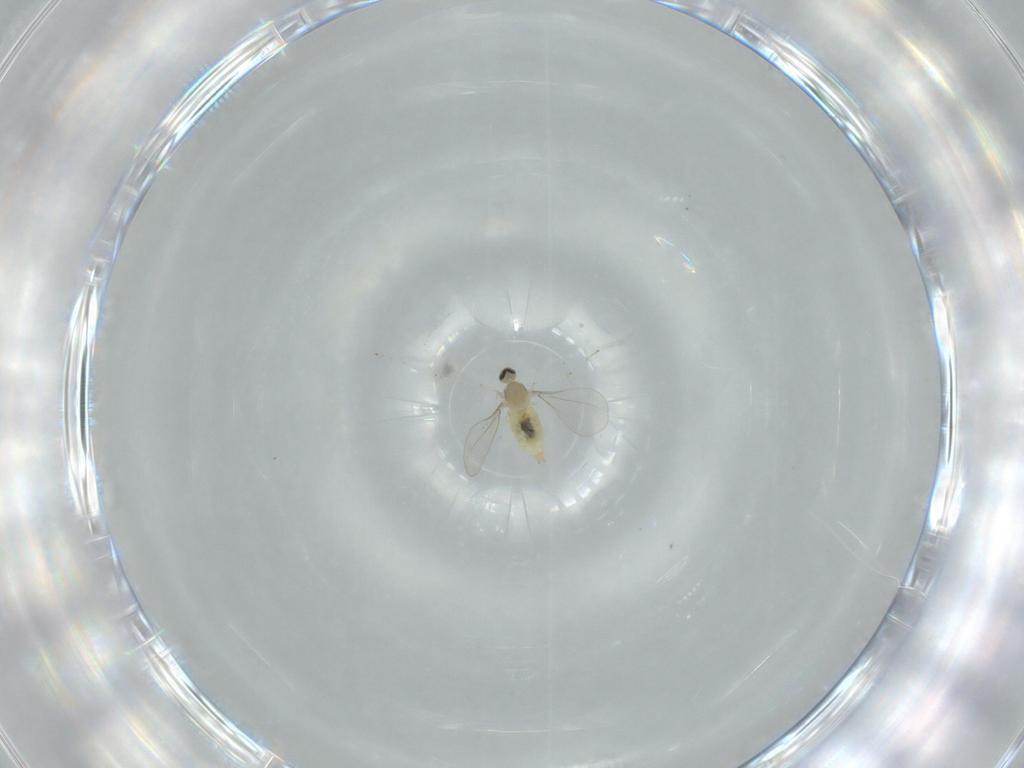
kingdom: Animalia
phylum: Arthropoda
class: Insecta
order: Diptera
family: Cecidomyiidae
